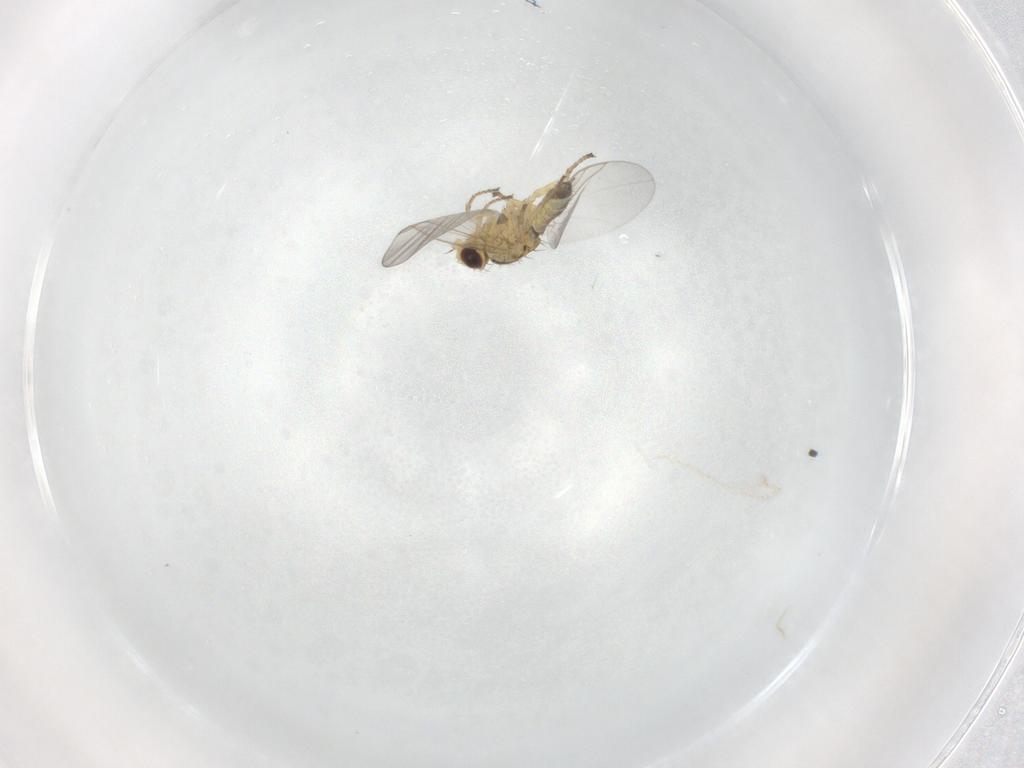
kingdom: Animalia
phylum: Arthropoda
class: Insecta
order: Diptera
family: Agromyzidae
